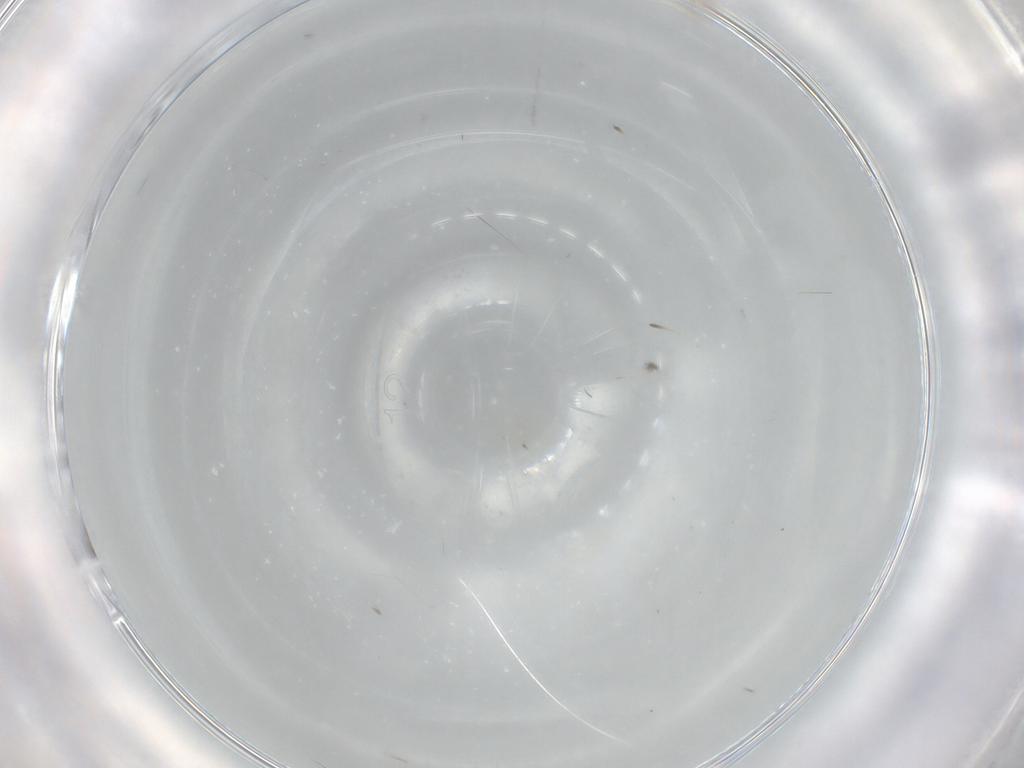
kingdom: Animalia
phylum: Arthropoda
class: Insecta
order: Hymenoptera
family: Trichogrammatidae
